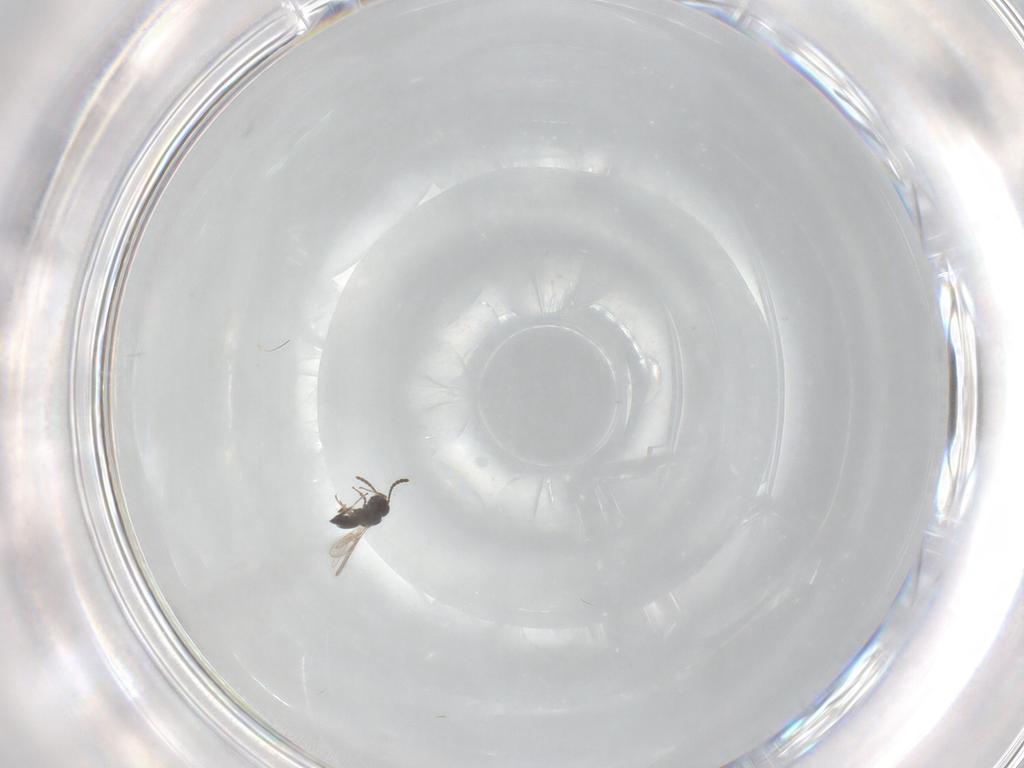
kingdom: Animalia
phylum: Arthropoda
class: Insecta
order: Hymenoptera
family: Scelionidae
